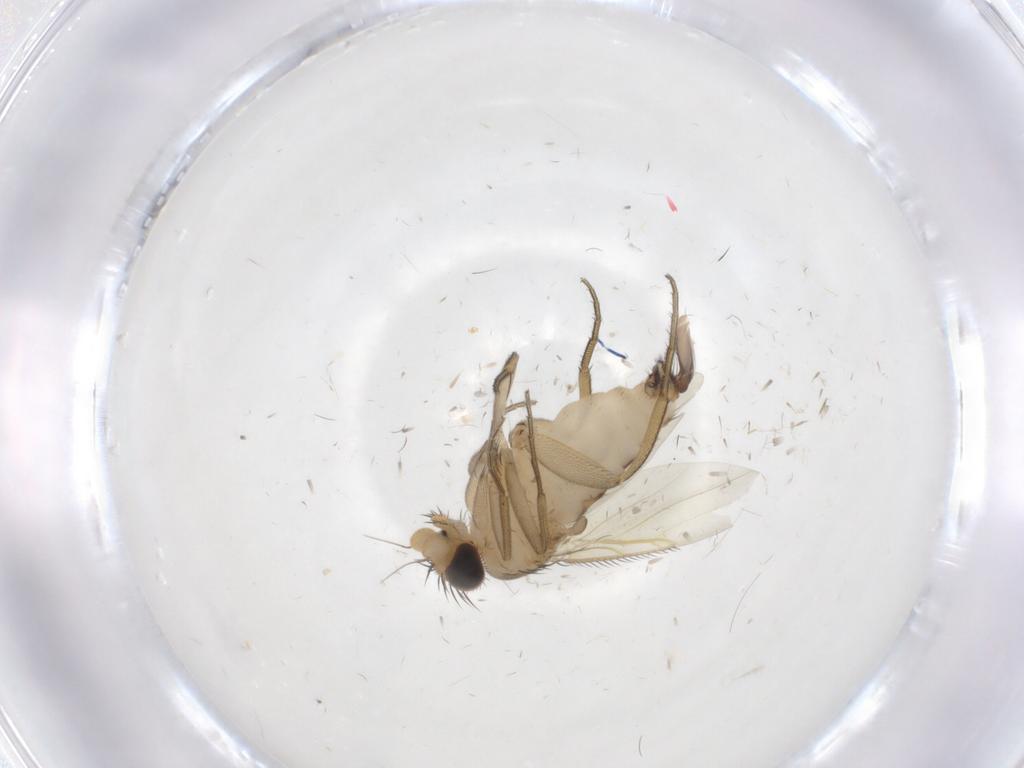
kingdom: Animalia
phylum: Arthropoda
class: Insecta
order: Diptera
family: Phoridae
